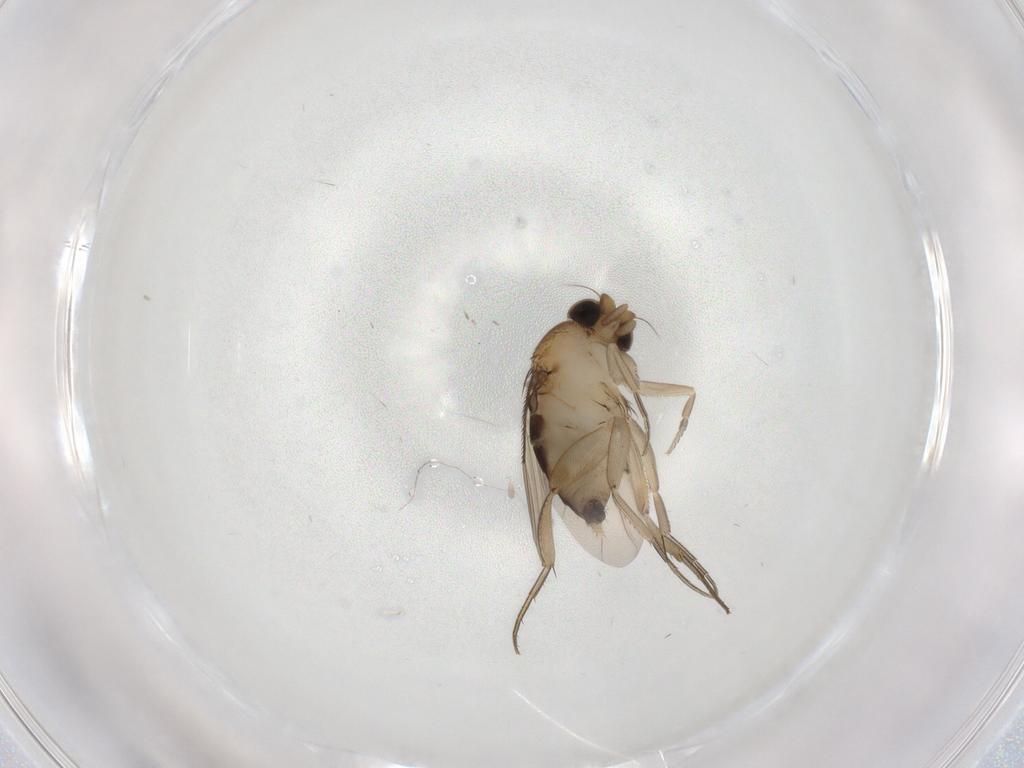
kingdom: Animalia
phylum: Arthropoda
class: Insecta
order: Diptera
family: Phoridae
